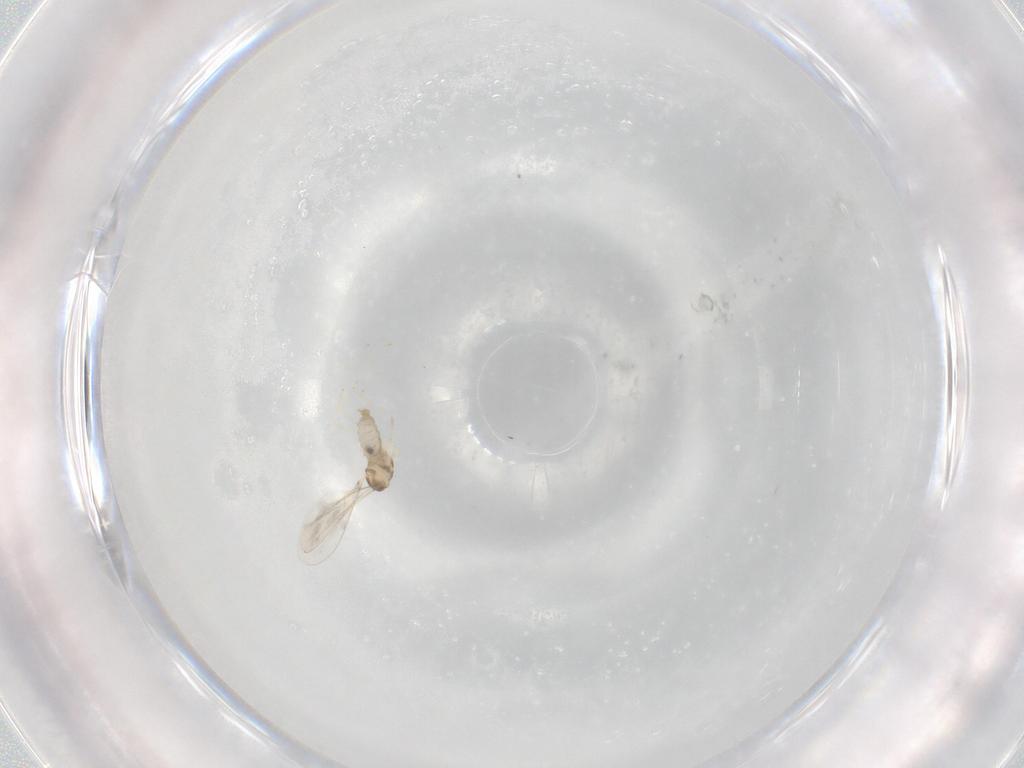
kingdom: Animalia
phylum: Arthropoda
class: Insecta
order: Diptera
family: Cecidomyiidae
